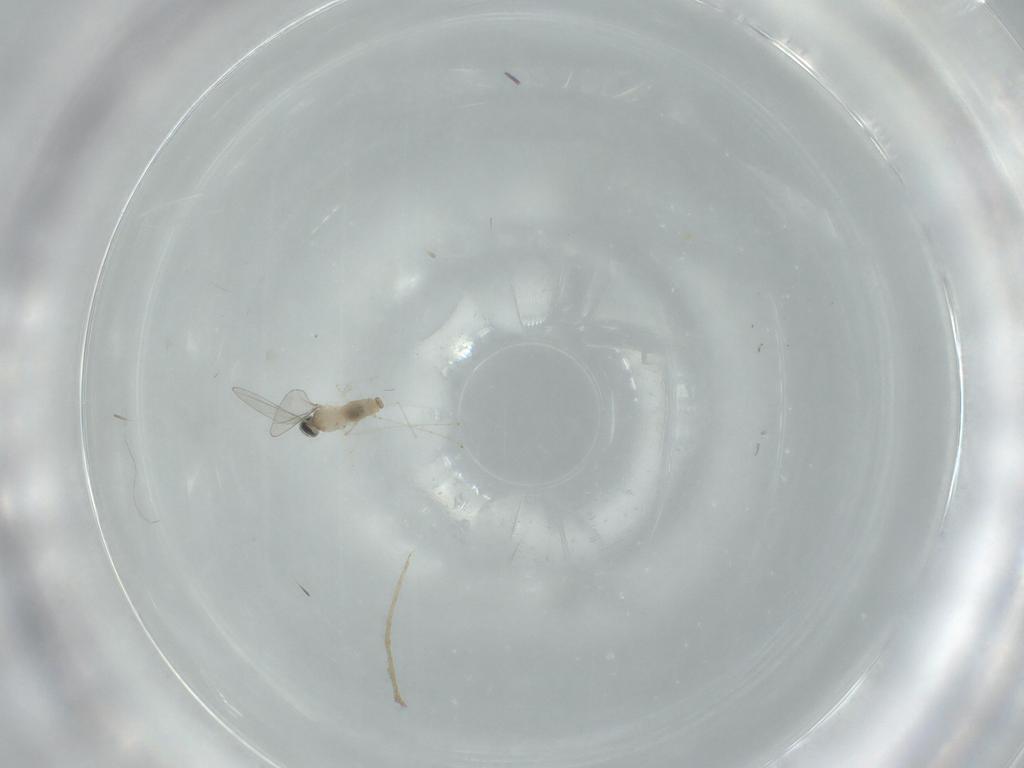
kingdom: Animalia
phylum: Arthropoda
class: Insecta
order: Diptera
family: Cecidomyiidae
